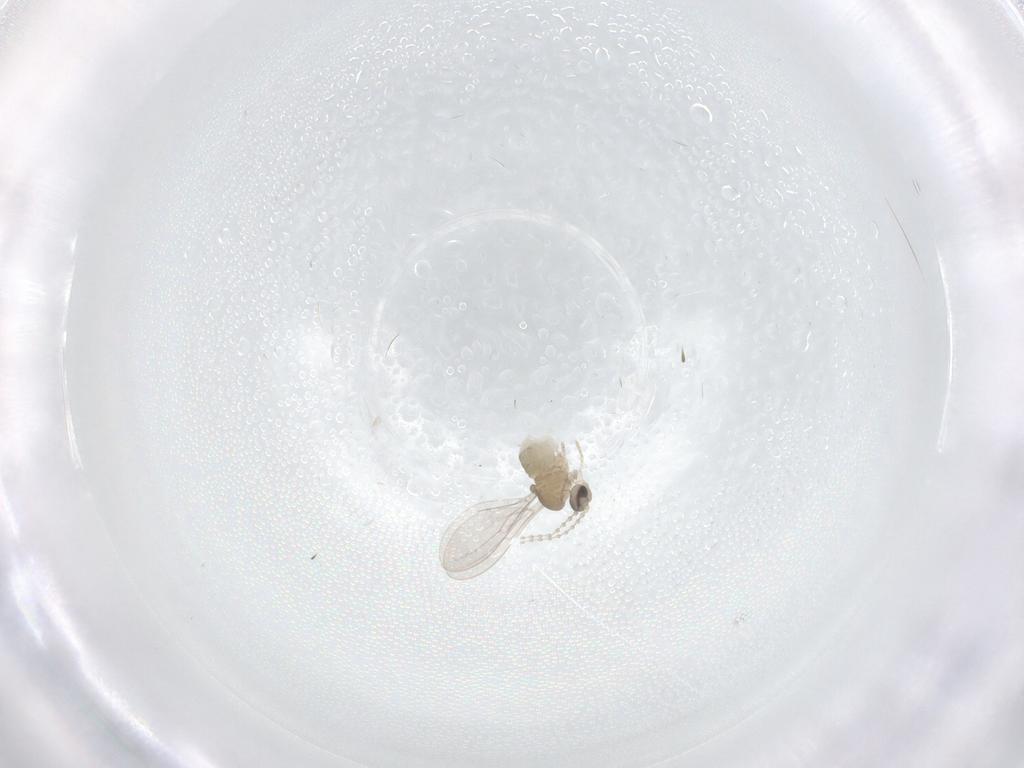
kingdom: Animalia
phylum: Arthropoda
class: Insecta
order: Diptera
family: Cecidomyiidae
